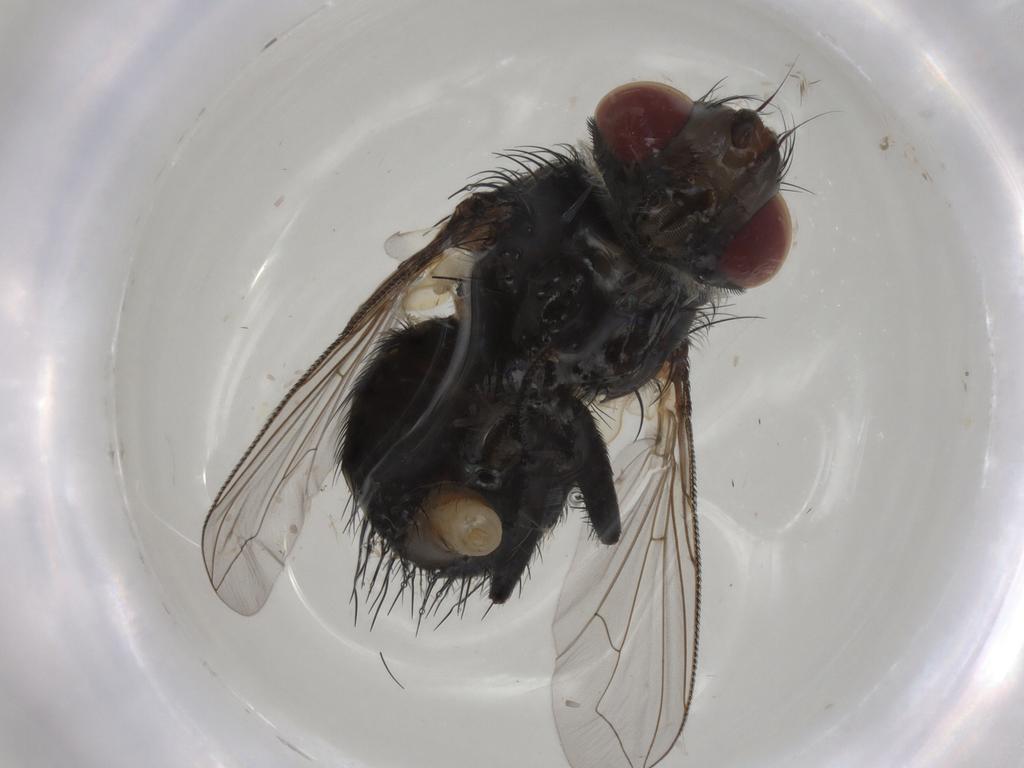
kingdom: Animalia
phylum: Arthropoda
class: Insecta
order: Diptera
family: Tachinidae
